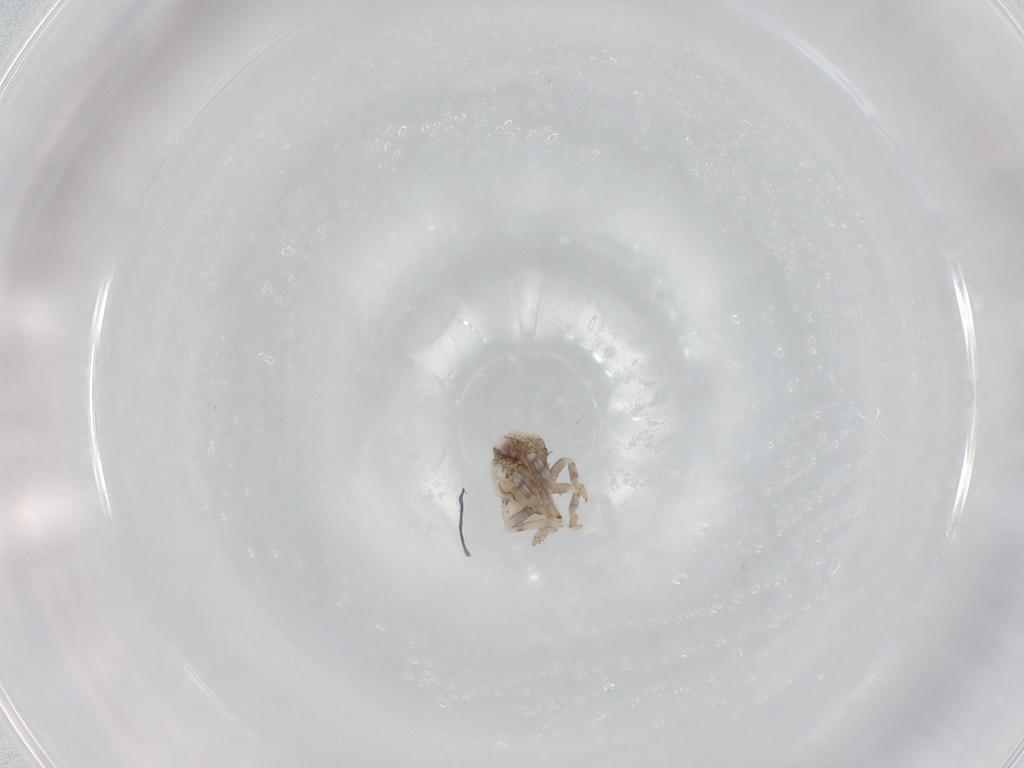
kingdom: Animalia
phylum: Arthropoda
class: Insecta
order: Hemiptera
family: Acanaloniidae
